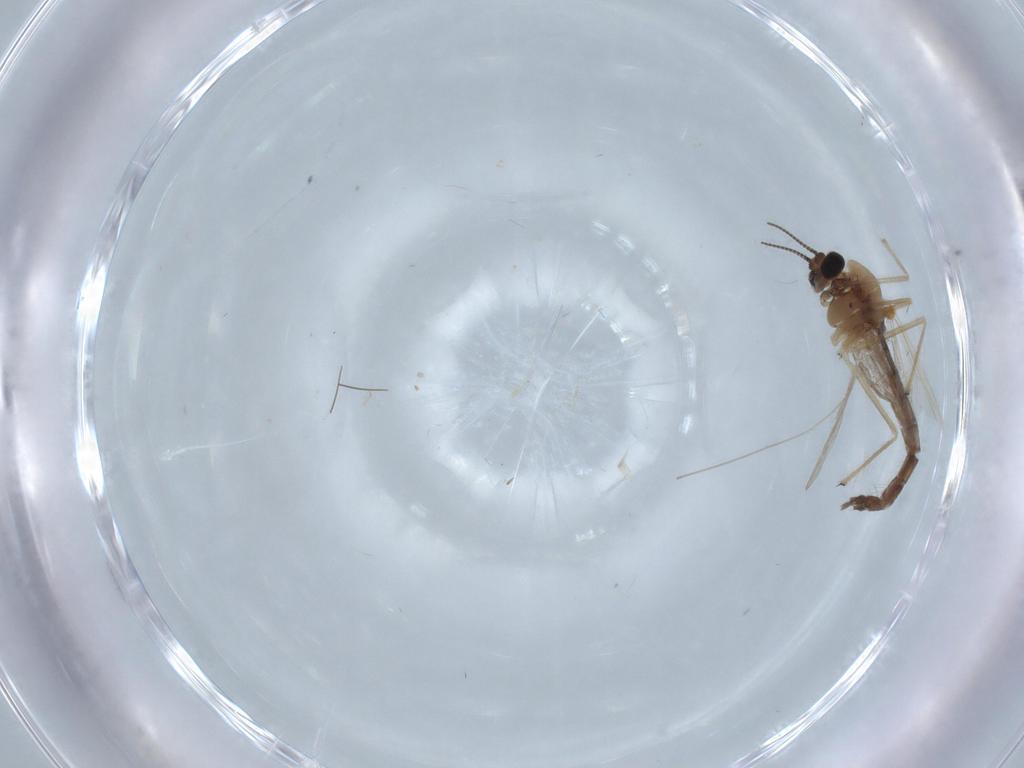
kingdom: Animalia
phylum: Arthropoda
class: Insecta
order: Diptera
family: Chironomidae
